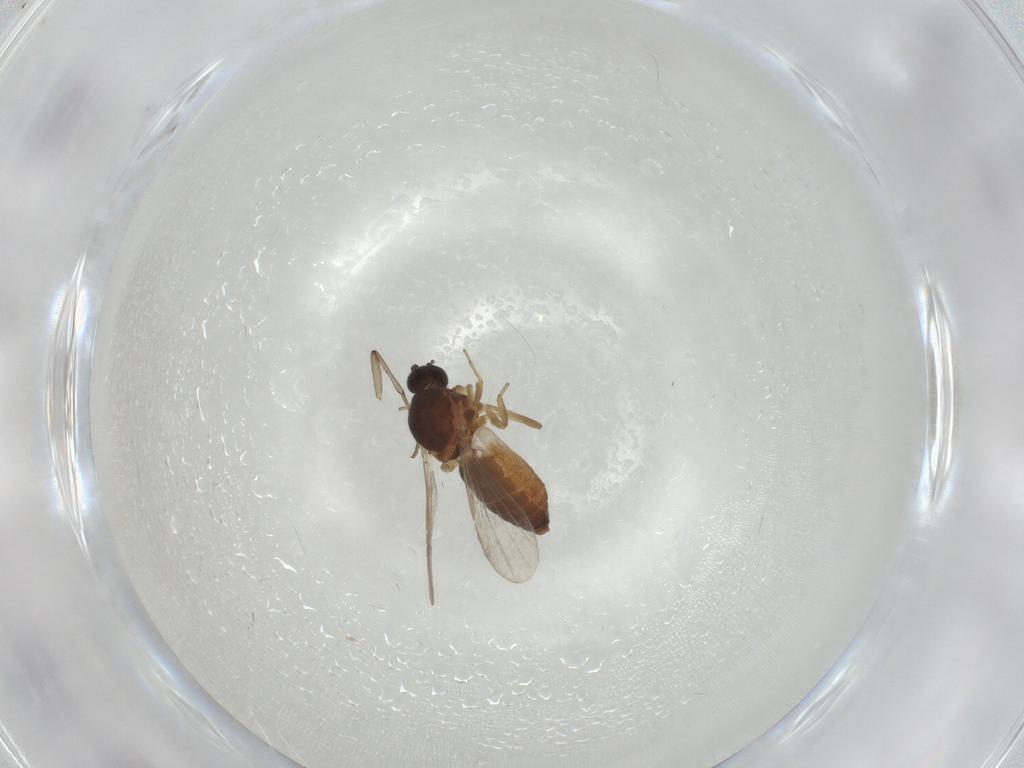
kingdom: Animalia
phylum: Arthropoda
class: Insecta
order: Diptera
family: Ceratopogonidae
